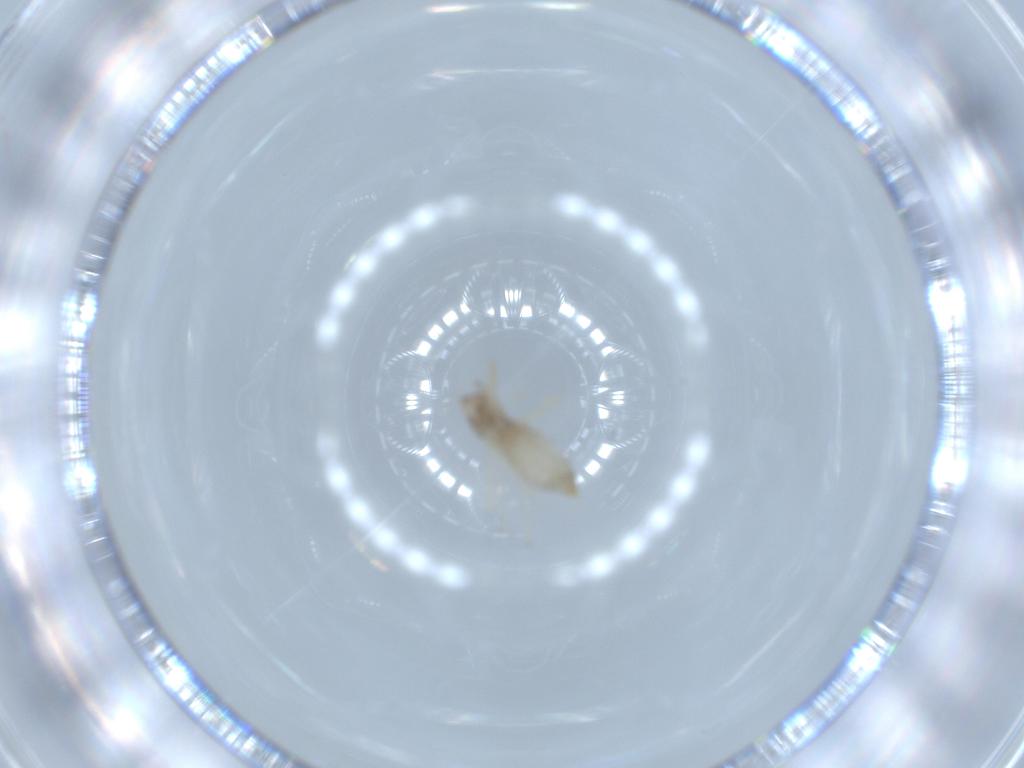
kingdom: Animalia
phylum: Arthropoda
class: Insecta
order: Diptera
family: Cecidomyiidae
